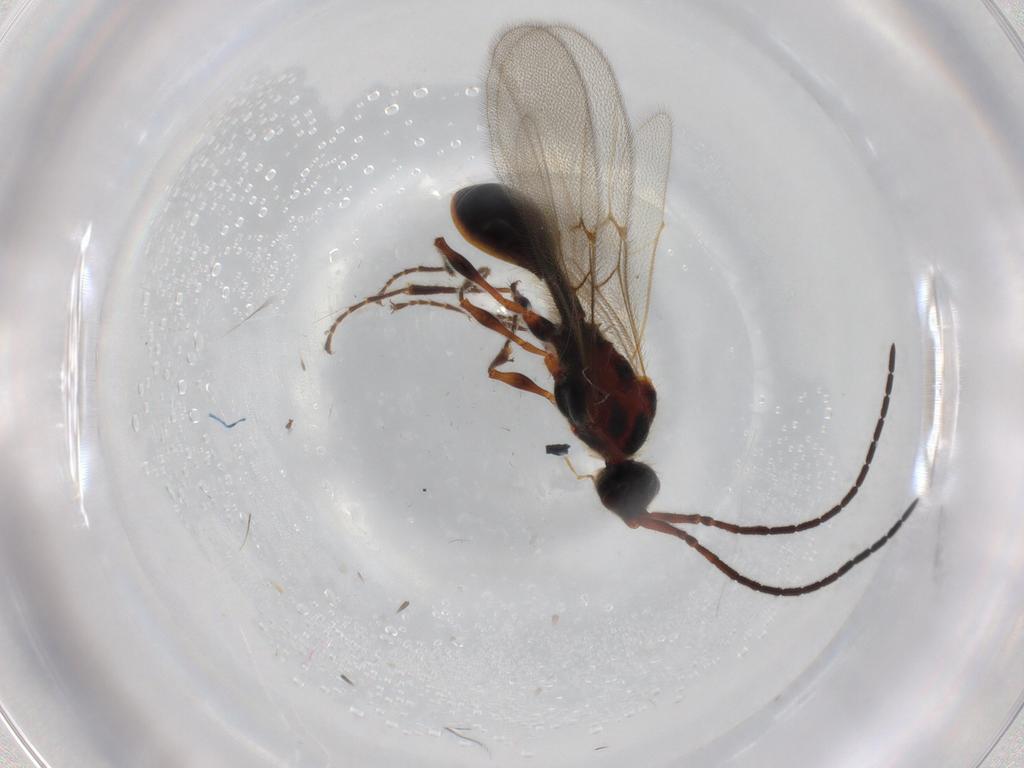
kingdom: Animalia
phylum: Arthropoda
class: Insecta
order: Hymenoptera
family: Diapriidae
